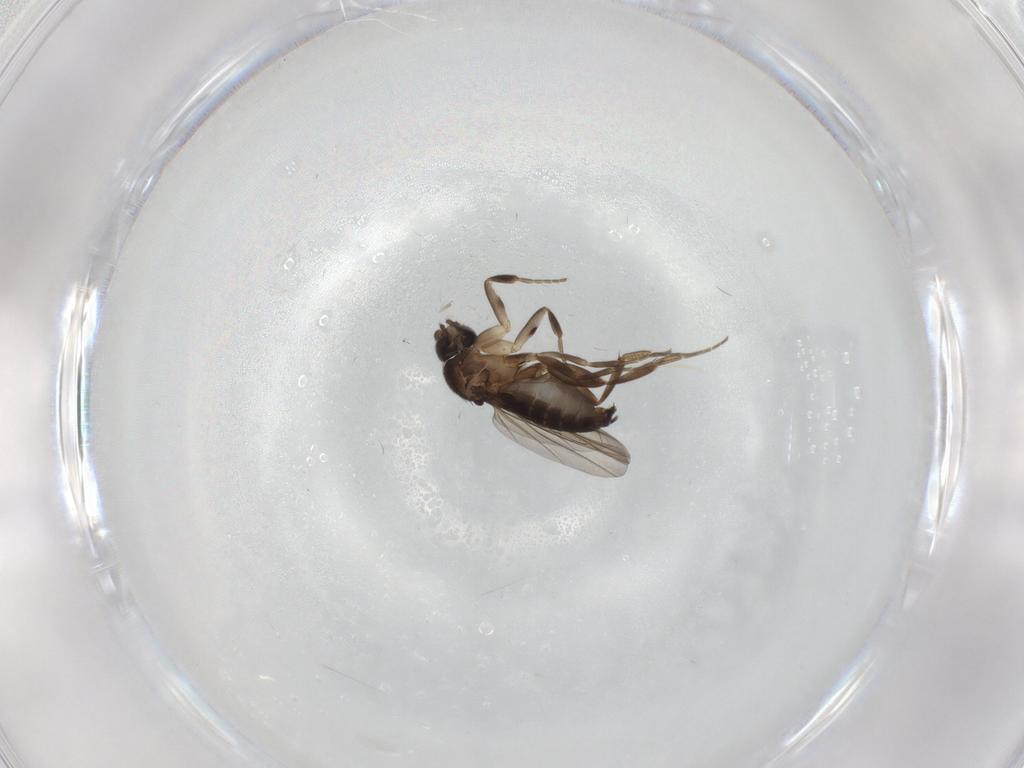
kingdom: Animalia
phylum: Arthropoda
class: Insecta
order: Diptera
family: Phoridae
